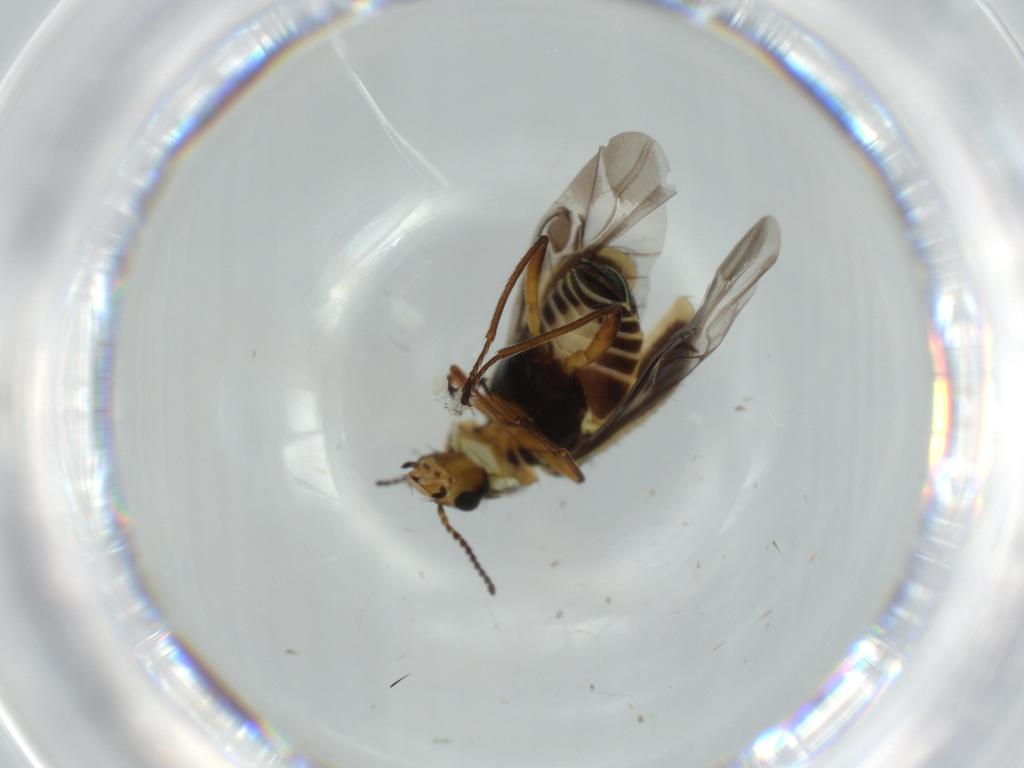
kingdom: Animalia
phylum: Arthropoda
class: Insecta
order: Coleoptera
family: Melyridae
